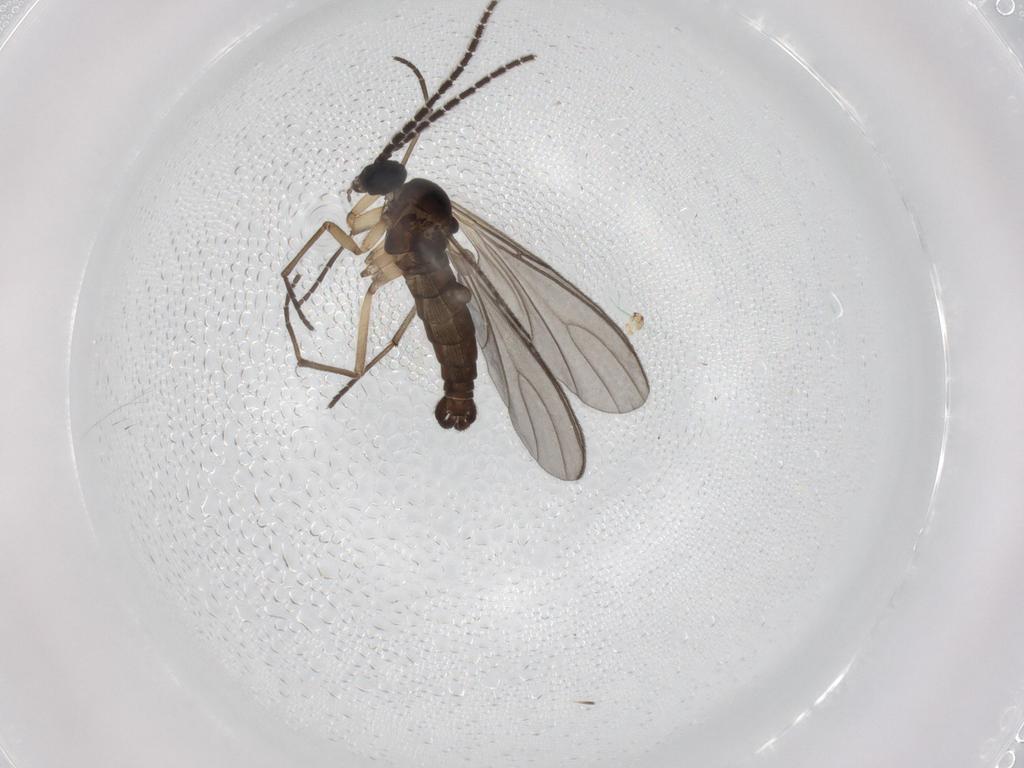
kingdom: Animalia
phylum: Arthropoda
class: Insecta
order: Diptera
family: Sciaridae
